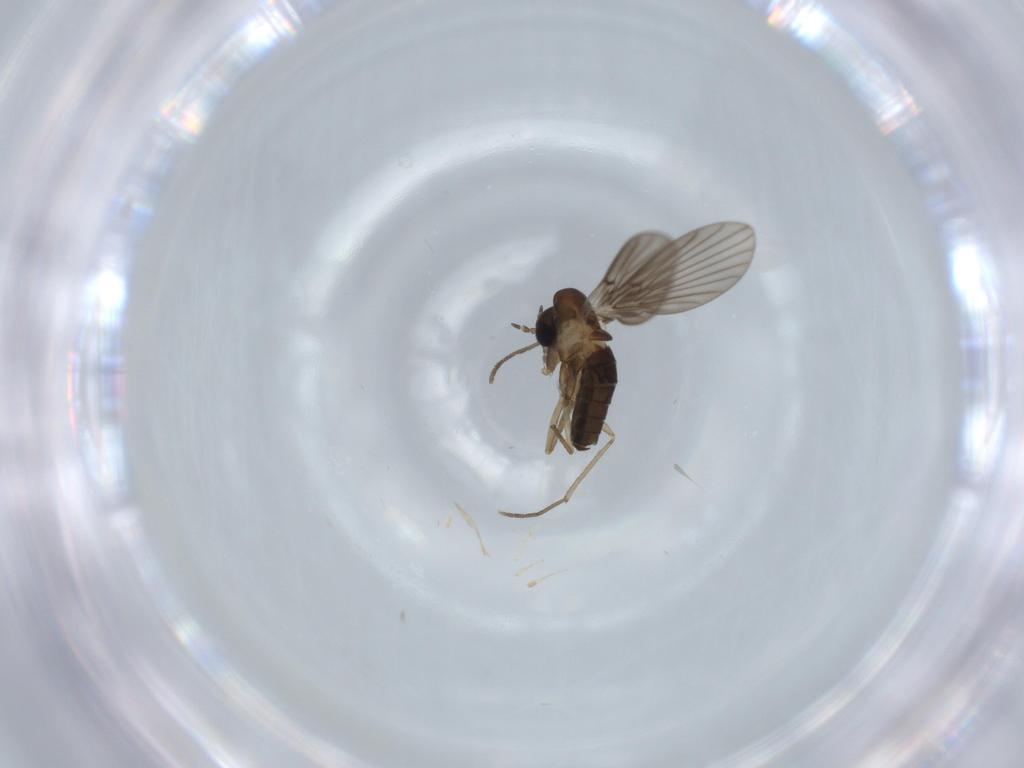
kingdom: Animalia
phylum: Arthropoda
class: Insecta
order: Diptera
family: Psychodidae
